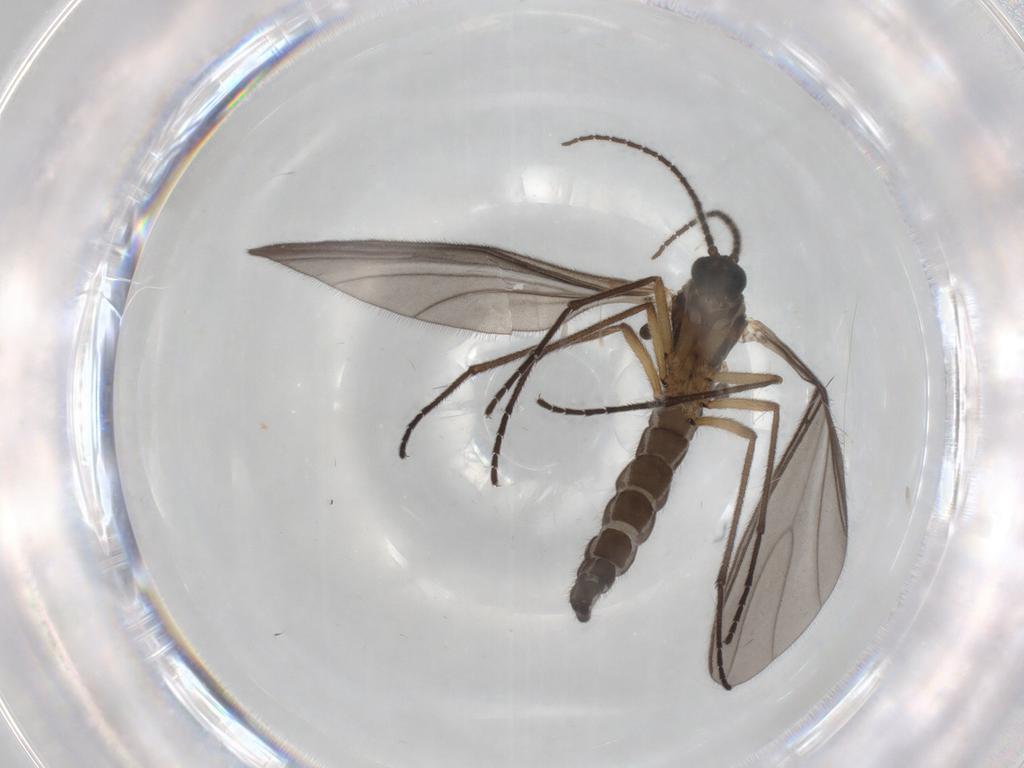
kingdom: Animalia
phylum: Arthropoda
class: Insecta
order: Diptera
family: Sciaridae
